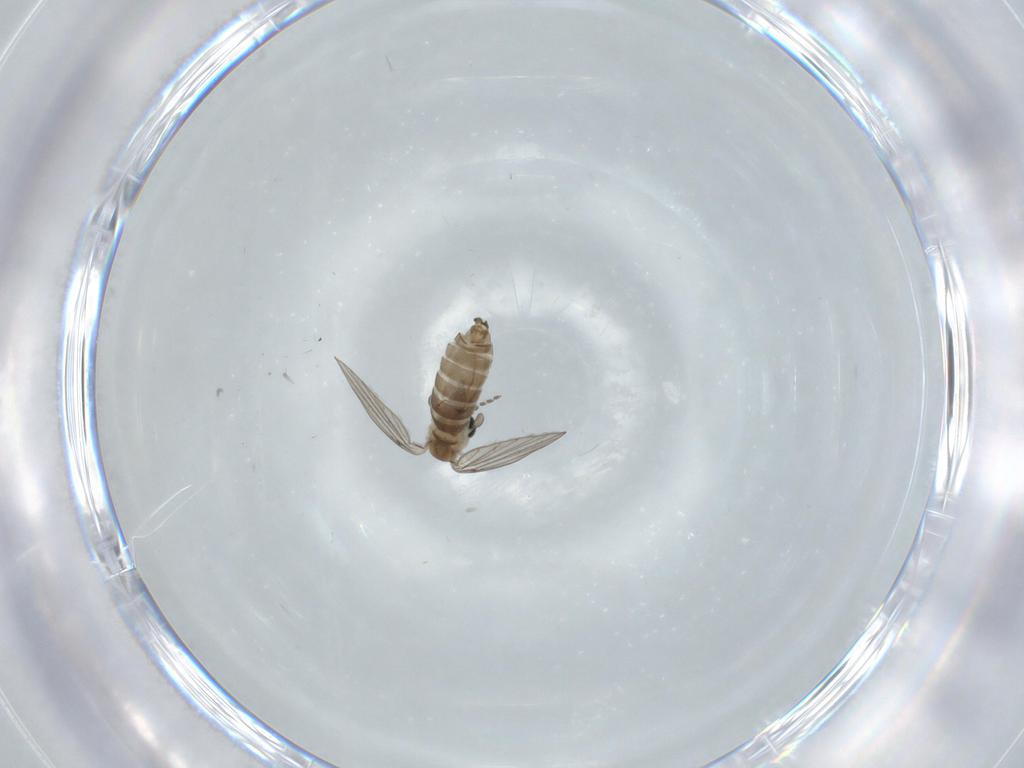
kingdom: Animalia
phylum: Arthropoda
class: Insecta
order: Diptera
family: Psychodidae
